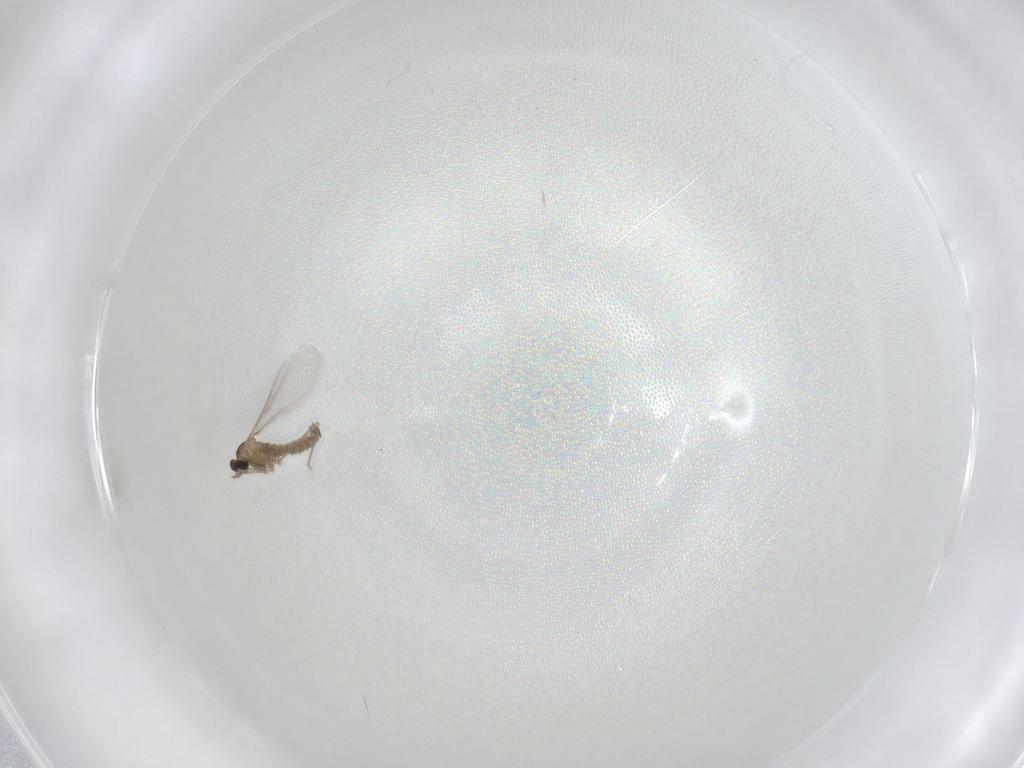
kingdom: Animalia
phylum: Arthropoda
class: Insecta
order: Diptera
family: Cecidomyiidae
